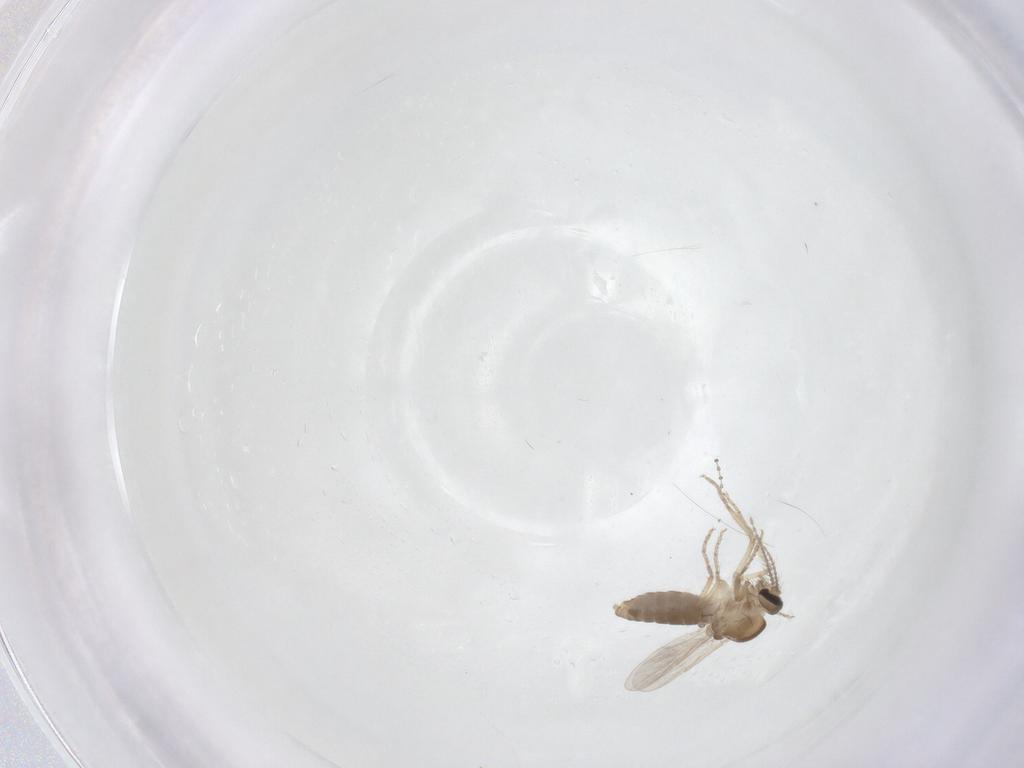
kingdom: Animalia
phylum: Arthropoda
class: Insecta
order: Diptera
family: Ceratopogonidae
